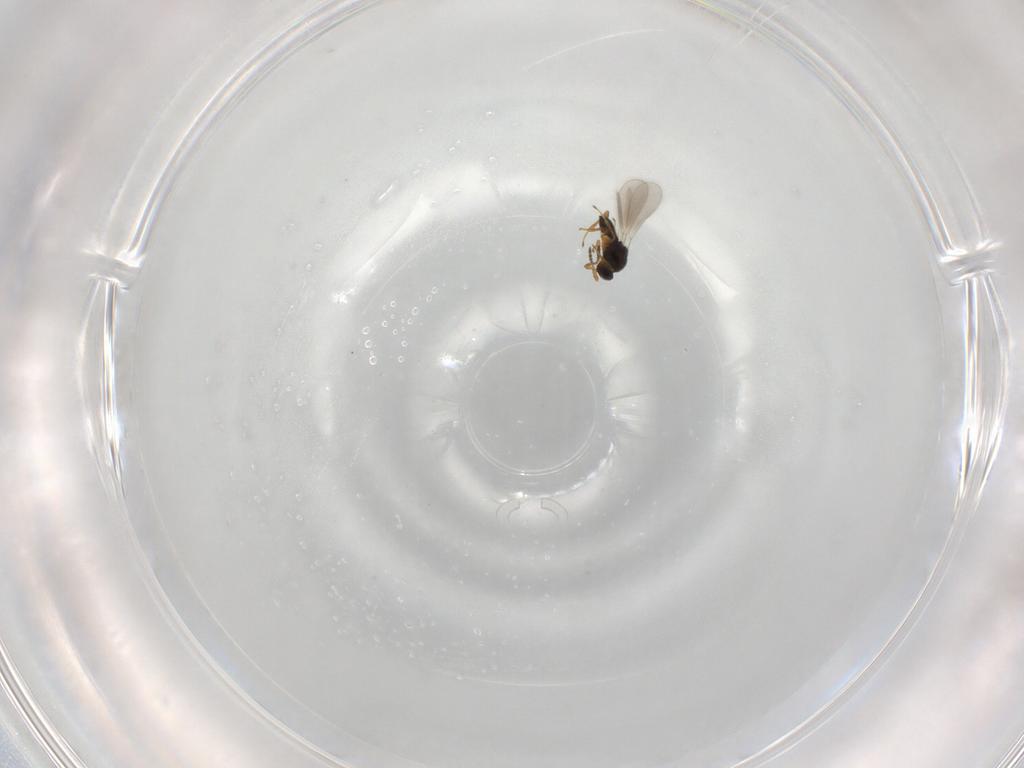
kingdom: Animalia
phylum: Arthropoda
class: Insecta
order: Hymenoptera
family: Platygastridae
